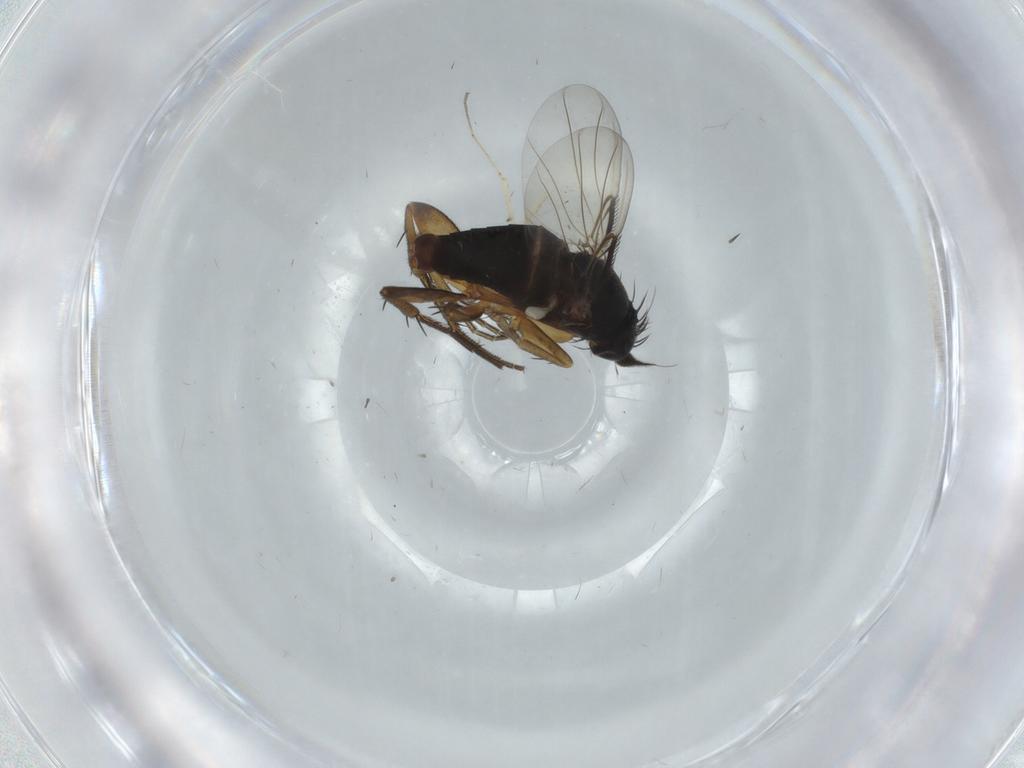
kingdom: Animalia
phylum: Arthropoda
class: Insecta
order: Diptera
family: Phoridae
